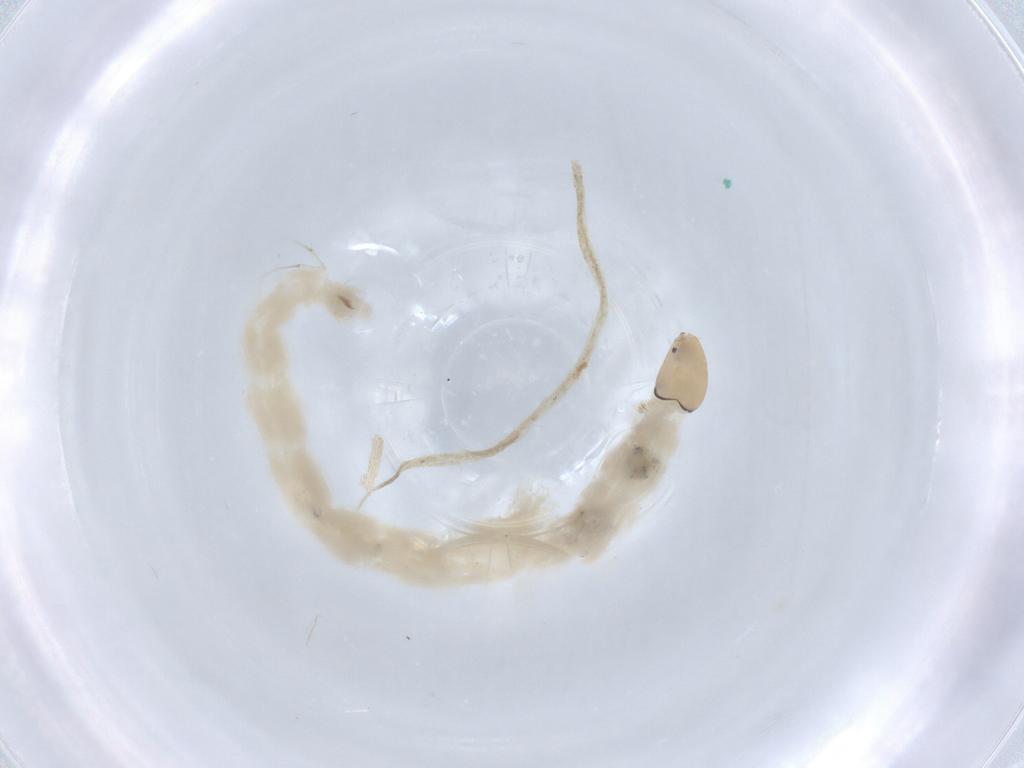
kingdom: Animalia
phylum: Arthropoda
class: Insecta
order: Diptera
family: Chironomidae
